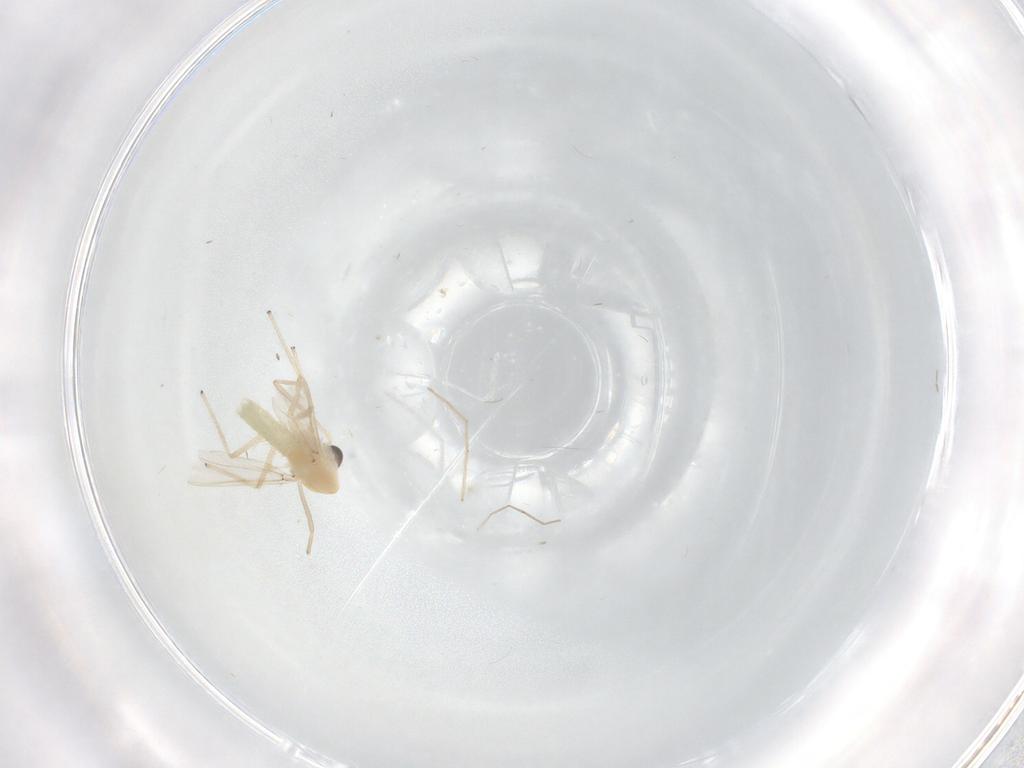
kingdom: Animalia
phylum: Arthropoda
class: Insecta
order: Diptera
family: Chironomidae
